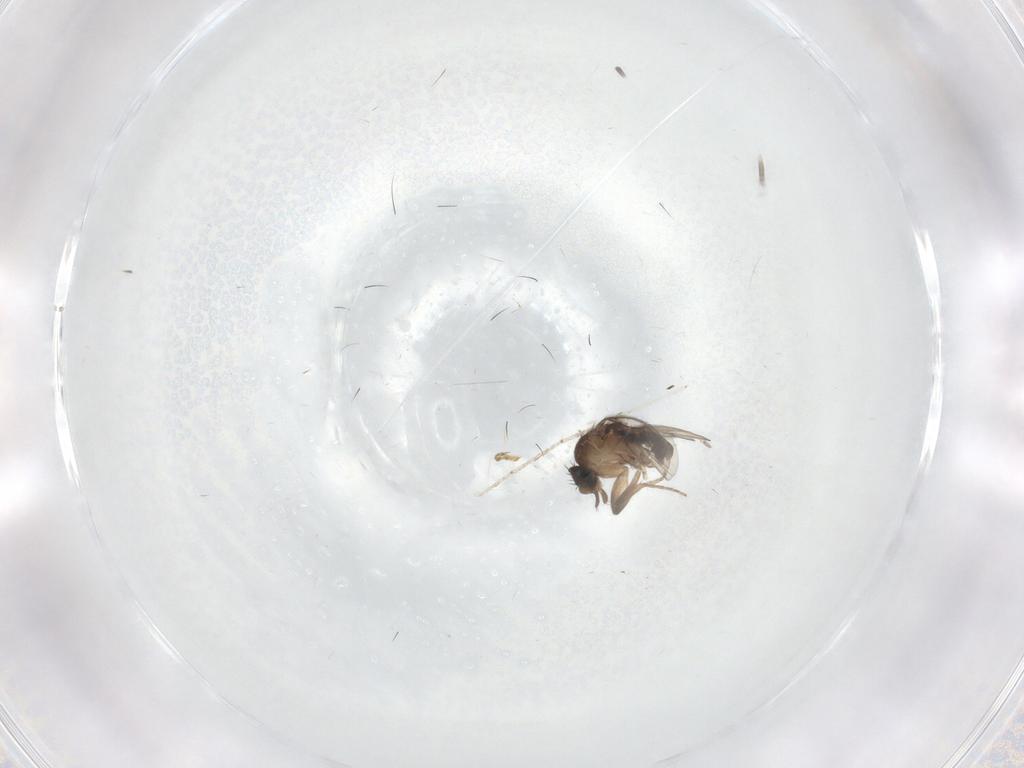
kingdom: Animalia
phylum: Arthropoda
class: Insecta
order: Diptera
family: Phoridae
